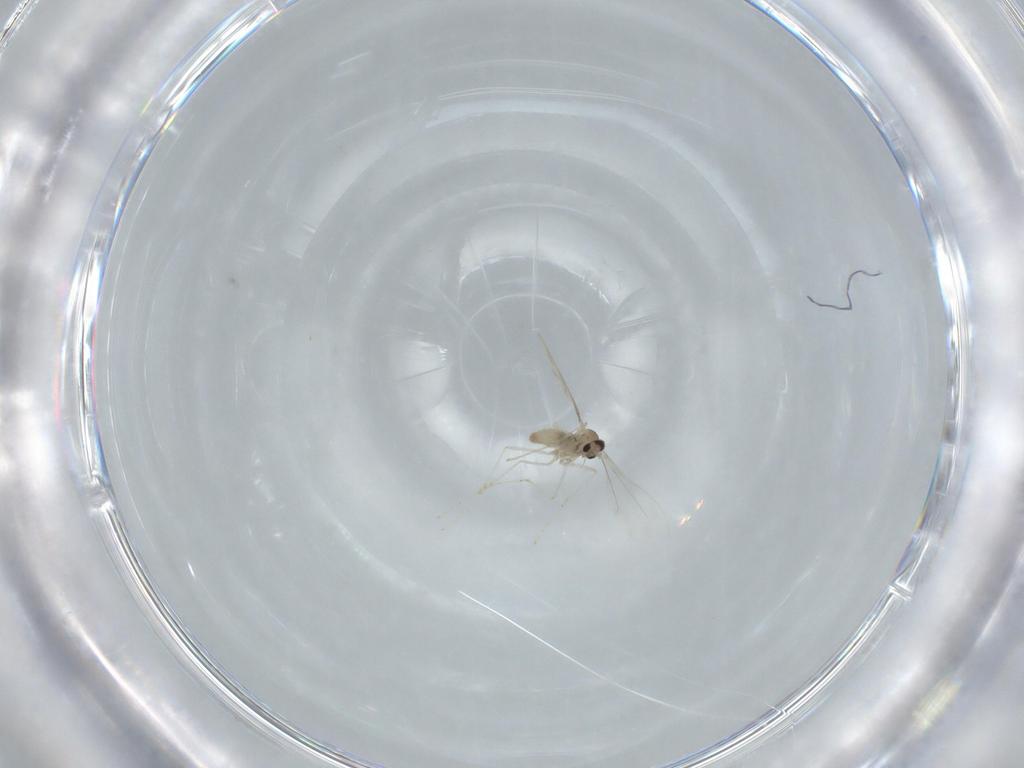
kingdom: Animalia
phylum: Arthropoda
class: Insecta
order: Diptera
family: Cecidomyiidae
